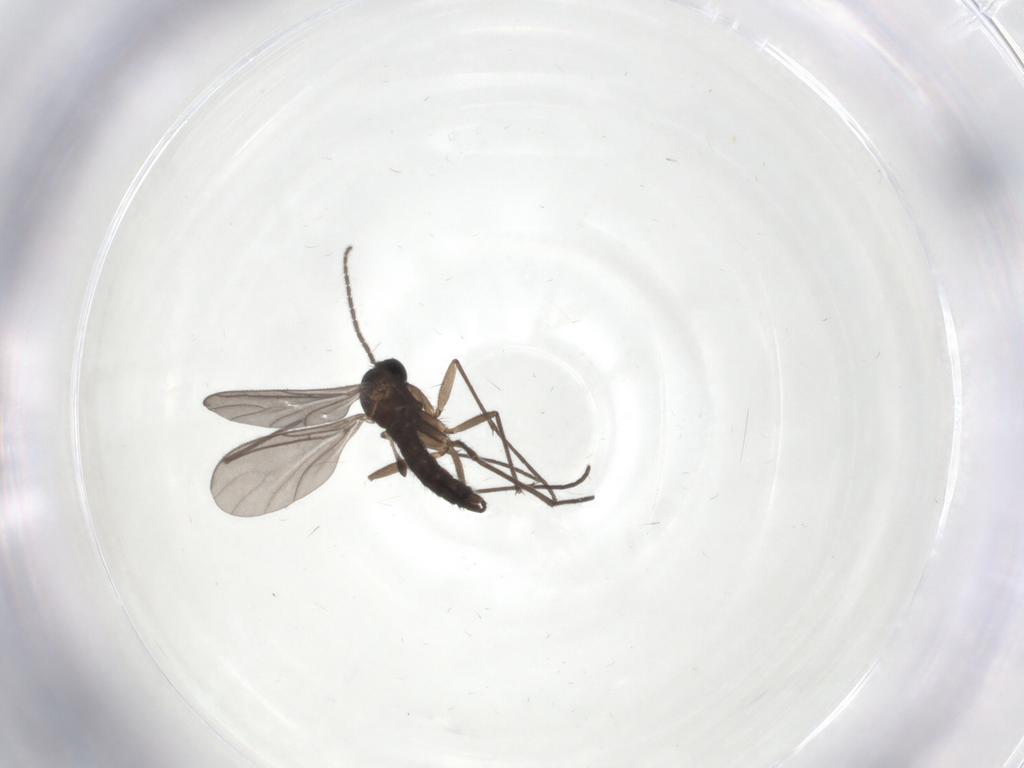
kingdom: Animalia
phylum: Arthropoda
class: Insecta
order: Diptera
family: Sciaridae
